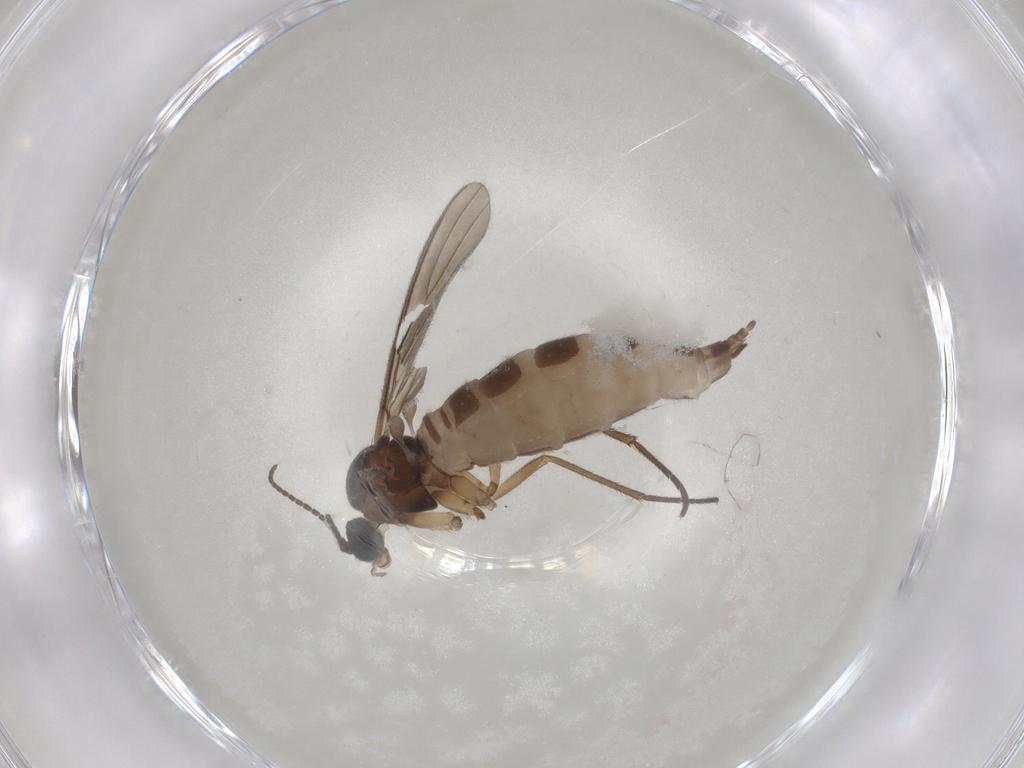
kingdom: Animalia
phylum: Arthropoda
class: Insecta
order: Diptera
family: Sciaridae
